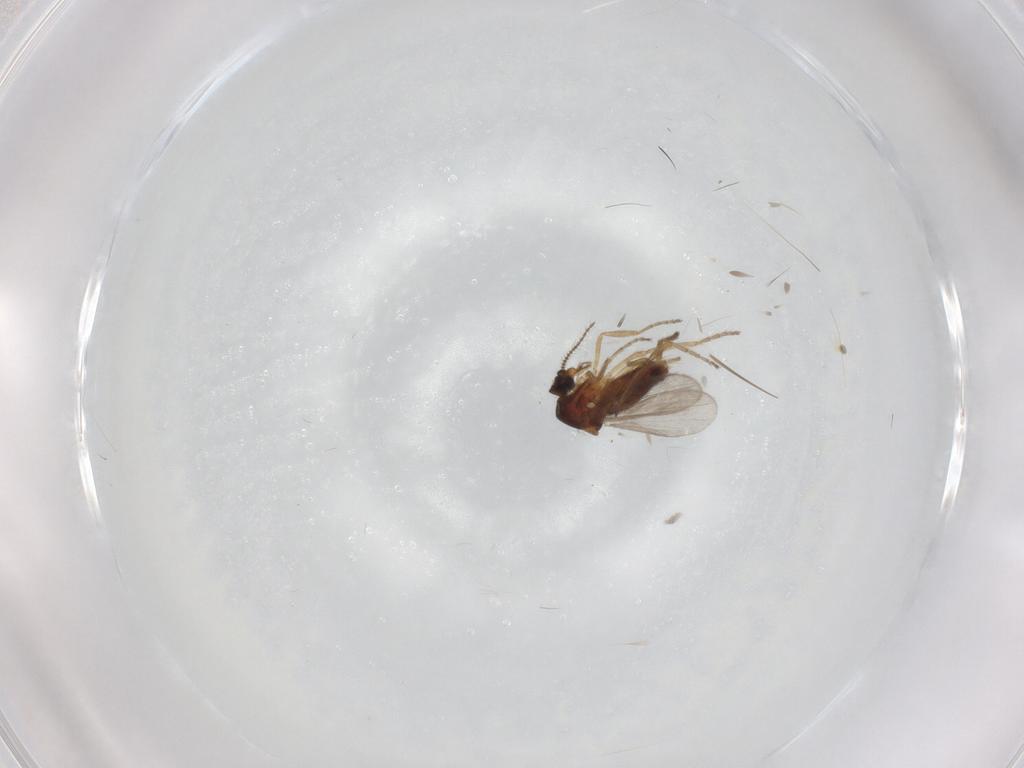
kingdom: Animalia
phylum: Arthropoda
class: Insecta
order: Diptera
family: Ceratopogonidae
